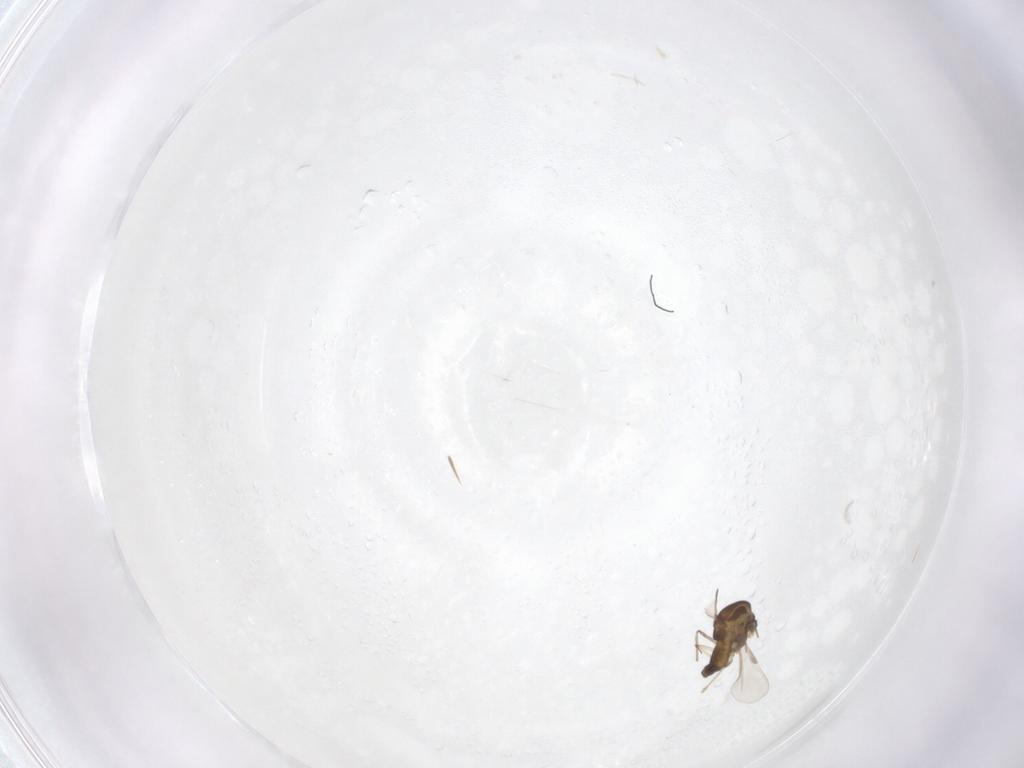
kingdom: Animalia
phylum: Arthropoda
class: Insecta
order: Diptera
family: Chironomidae
